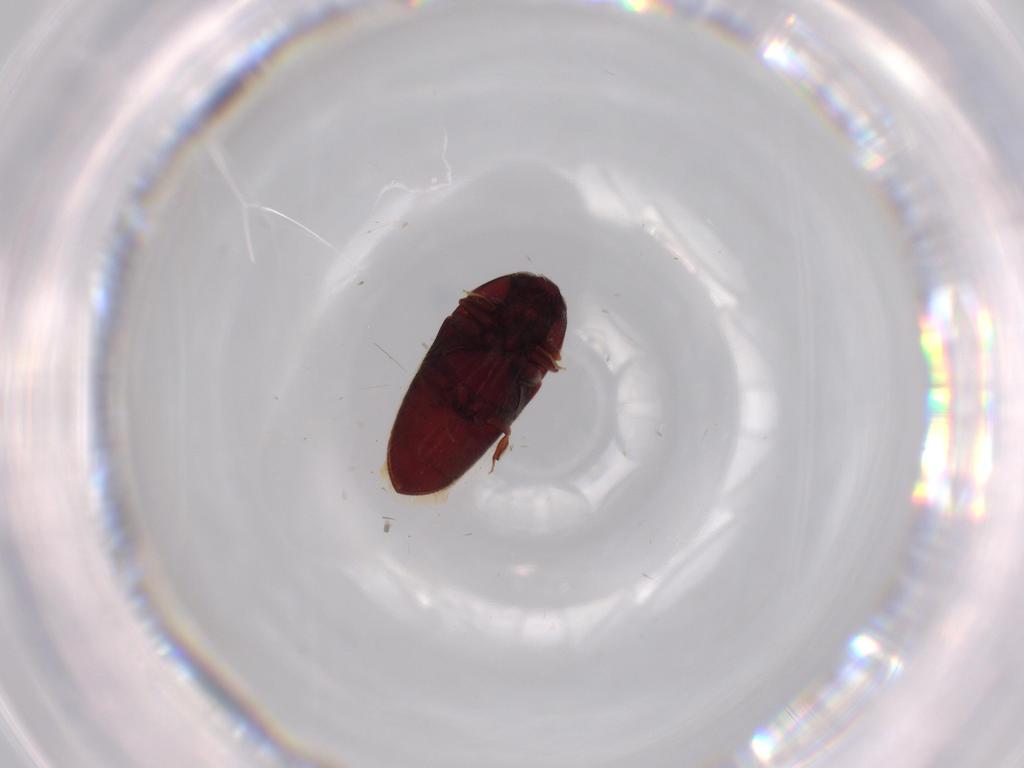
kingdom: Animalia
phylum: Arthropoda
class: Insecta
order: Coleoptera
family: Throscidae
